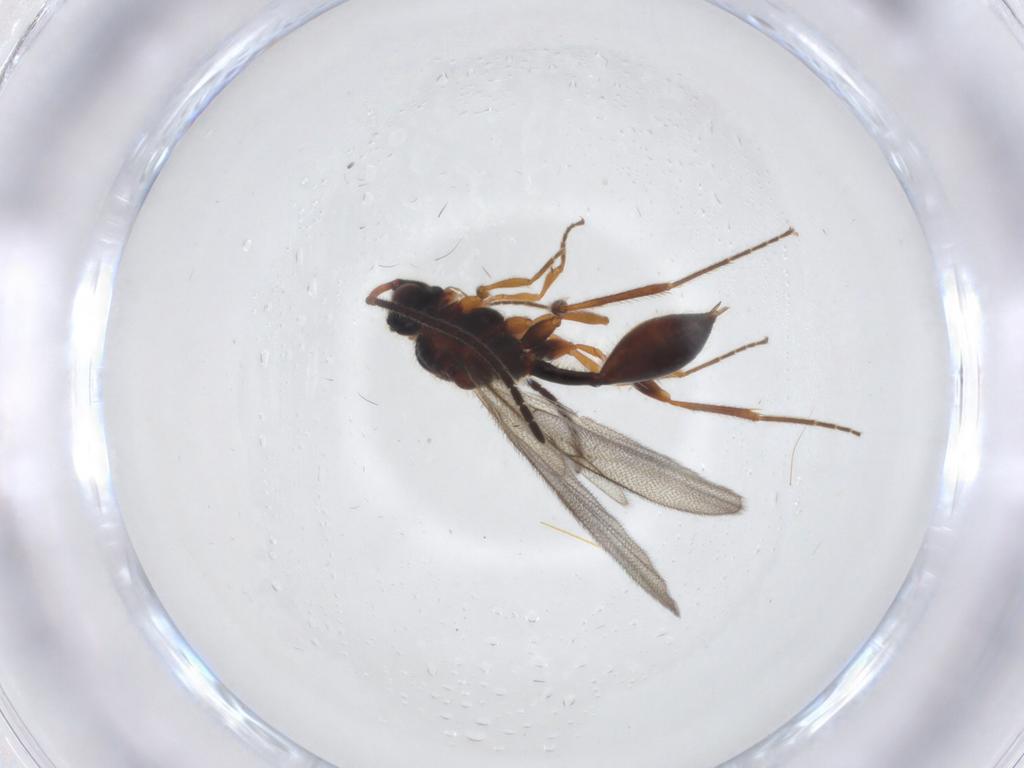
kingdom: Animalia
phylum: Arthropoda
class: Insecta
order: Hymenoptera
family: Diapriidae
